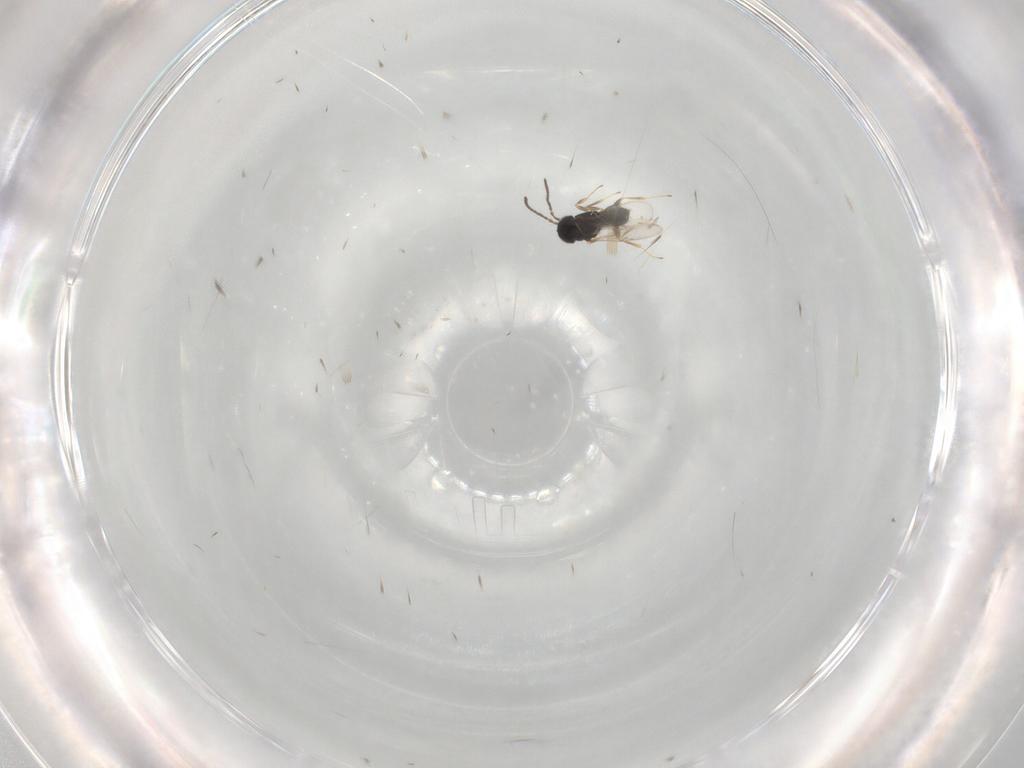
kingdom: Animalia
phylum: Arthropoda
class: Insecta
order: Hymenoptera
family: Scelionidae
